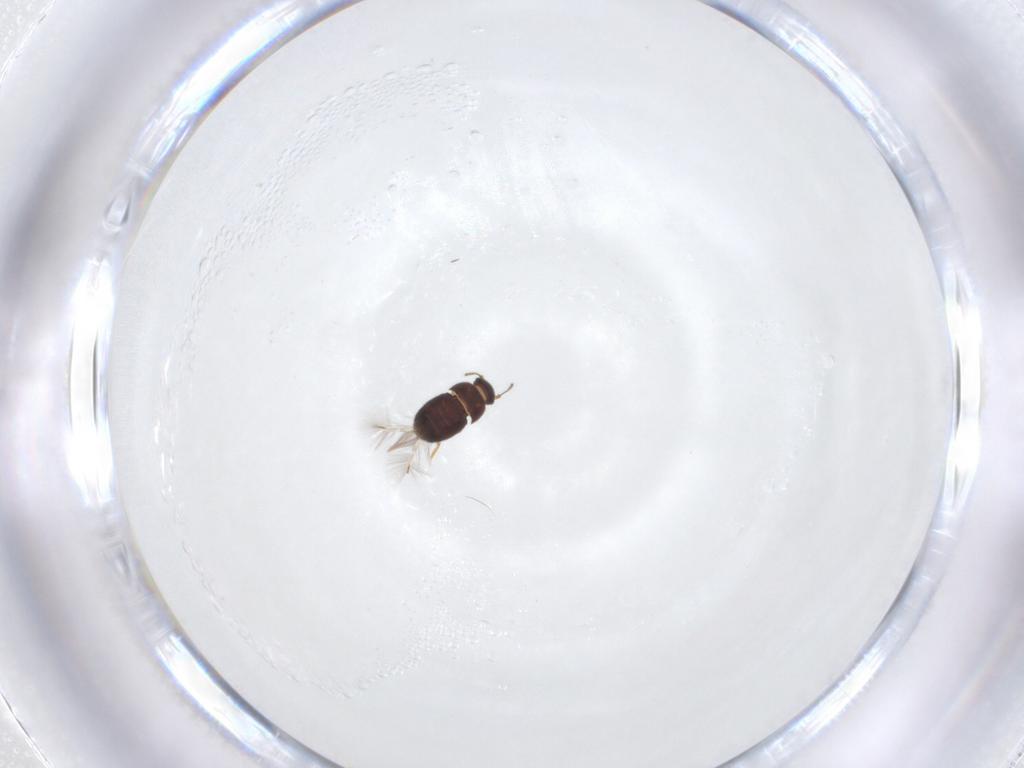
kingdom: Animalia
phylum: Arthropoda
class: Insecta
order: Coleoptera
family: Ptiliidae
